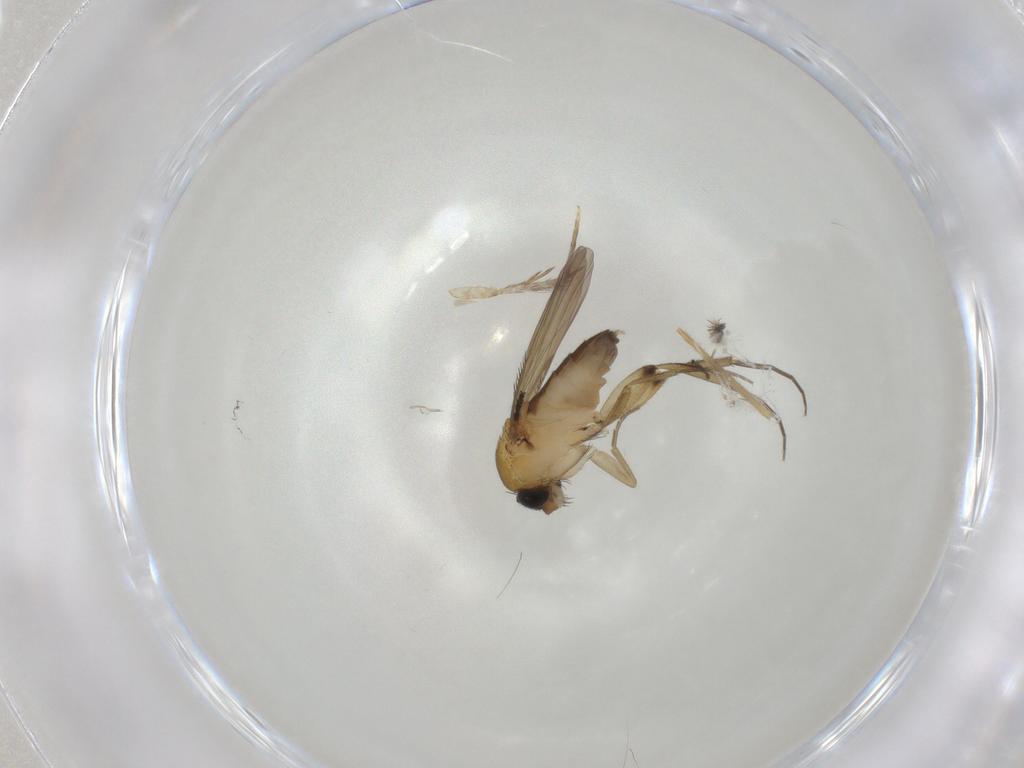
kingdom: Animalia
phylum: Arthropoda
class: Insecta
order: Diptera
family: Phoridae
